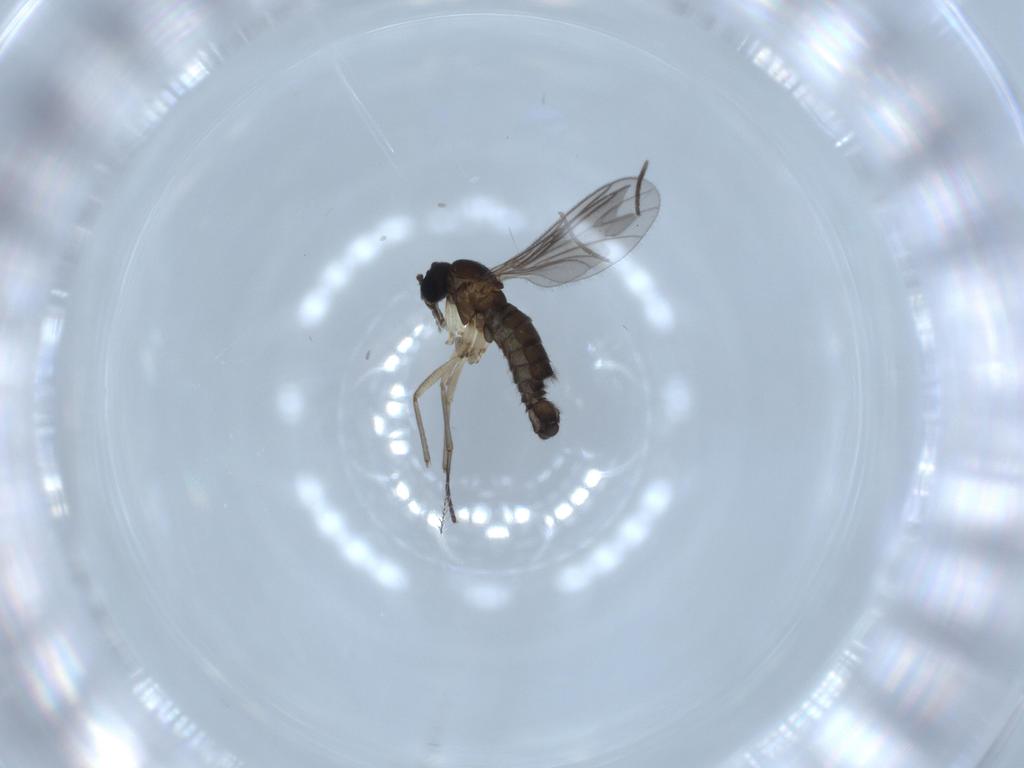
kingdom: Animalia
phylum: Arthropoda
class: Insecta
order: Diptera
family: Sciaridae
